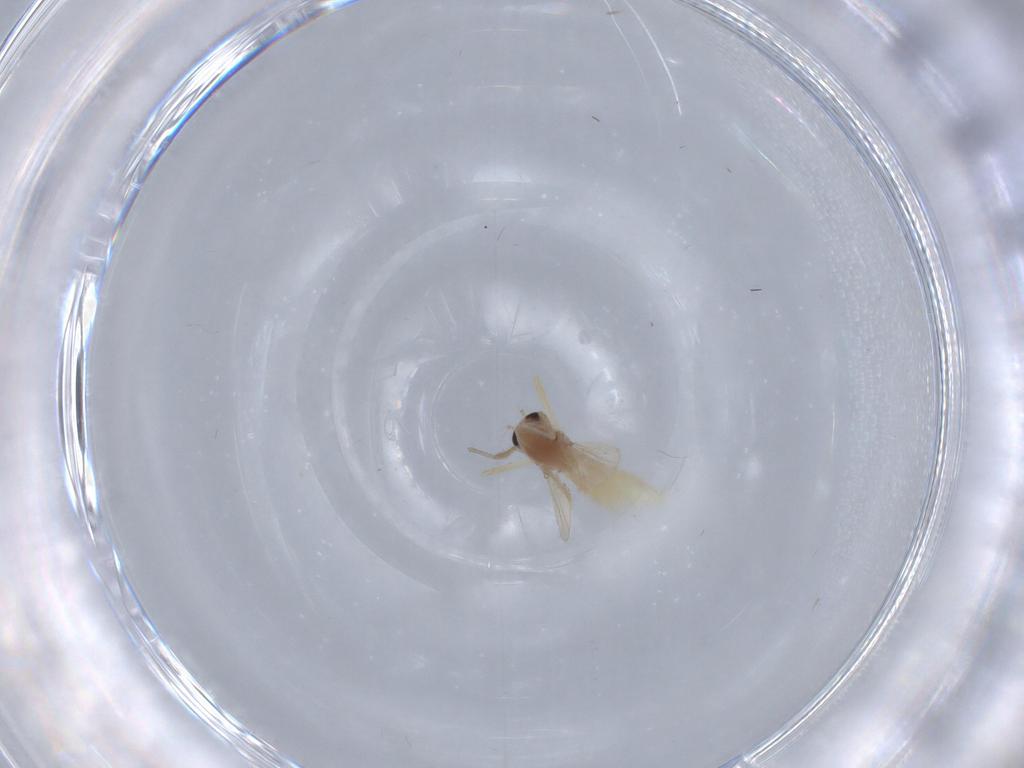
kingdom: Animalia
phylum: Arthropoda
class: Insecta
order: Diptera
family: Chironomidae
